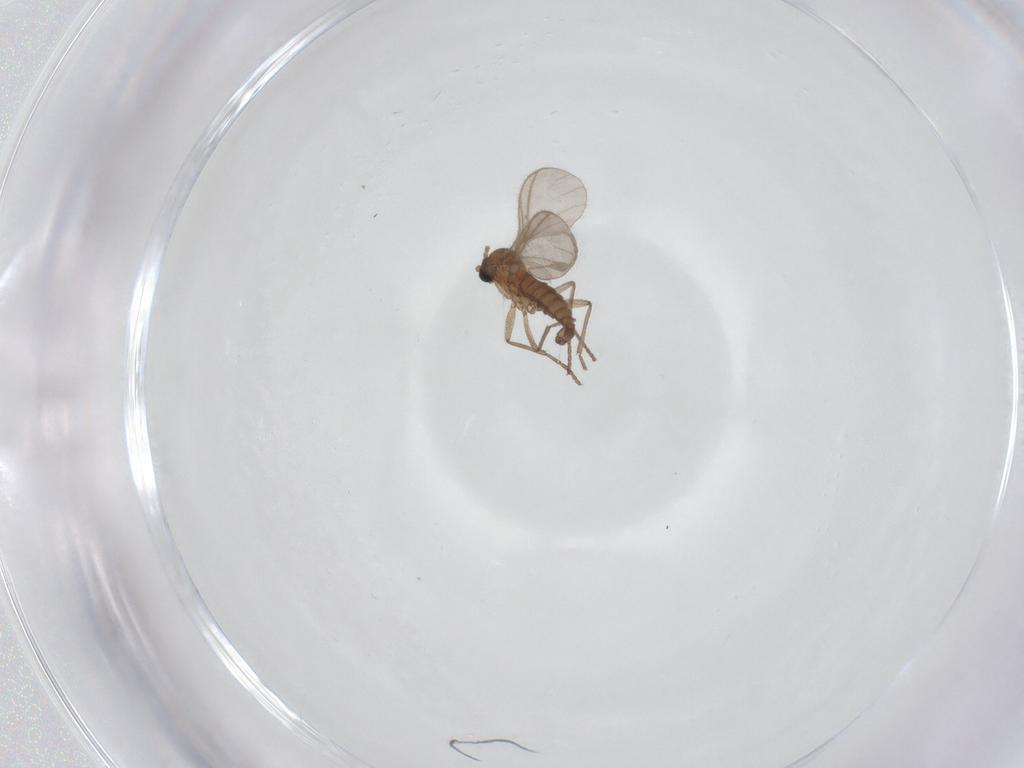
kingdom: Animalia
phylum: Arthropoda
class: Insecta
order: Diptera
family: Sciaridae
